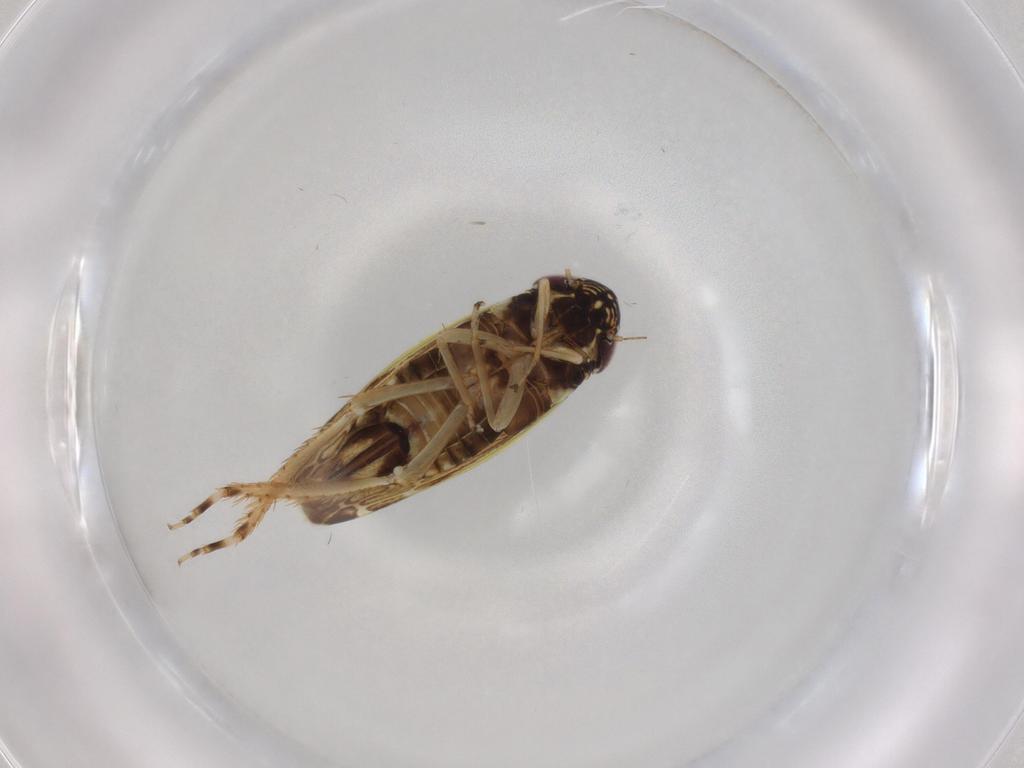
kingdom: Animalia
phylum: Arthropoda
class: Insecta
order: Hemiptera
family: Cicadellidae
